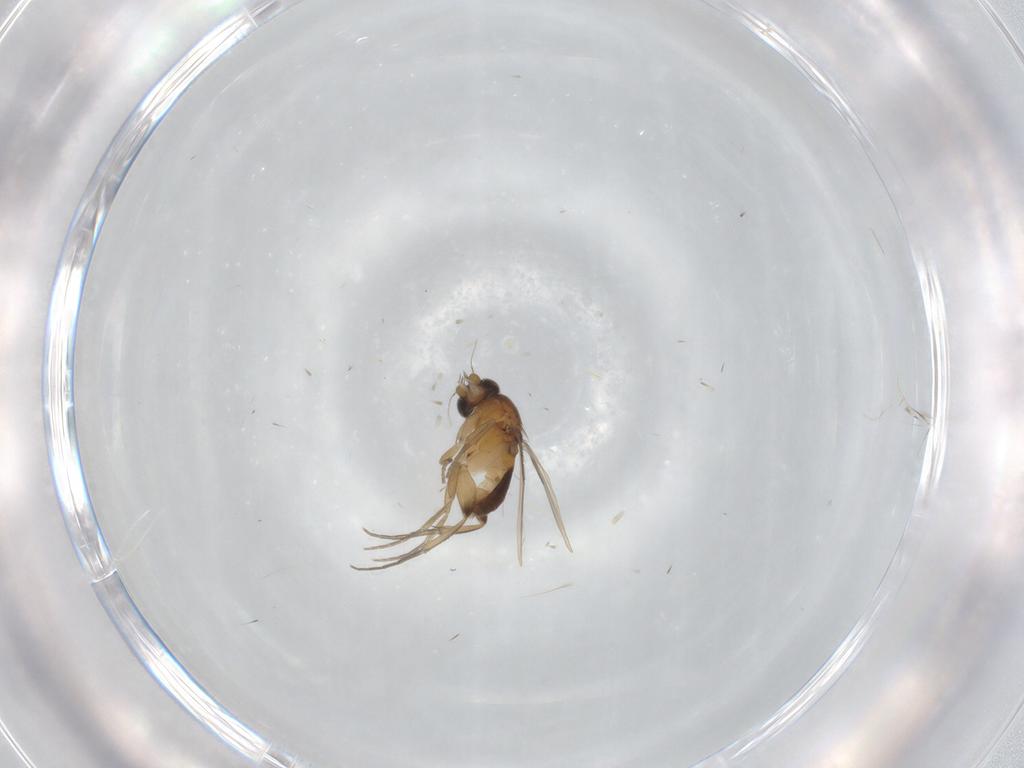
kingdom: Animalia
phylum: Arthropoda
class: Insecta
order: Diptera
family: Phoridae
